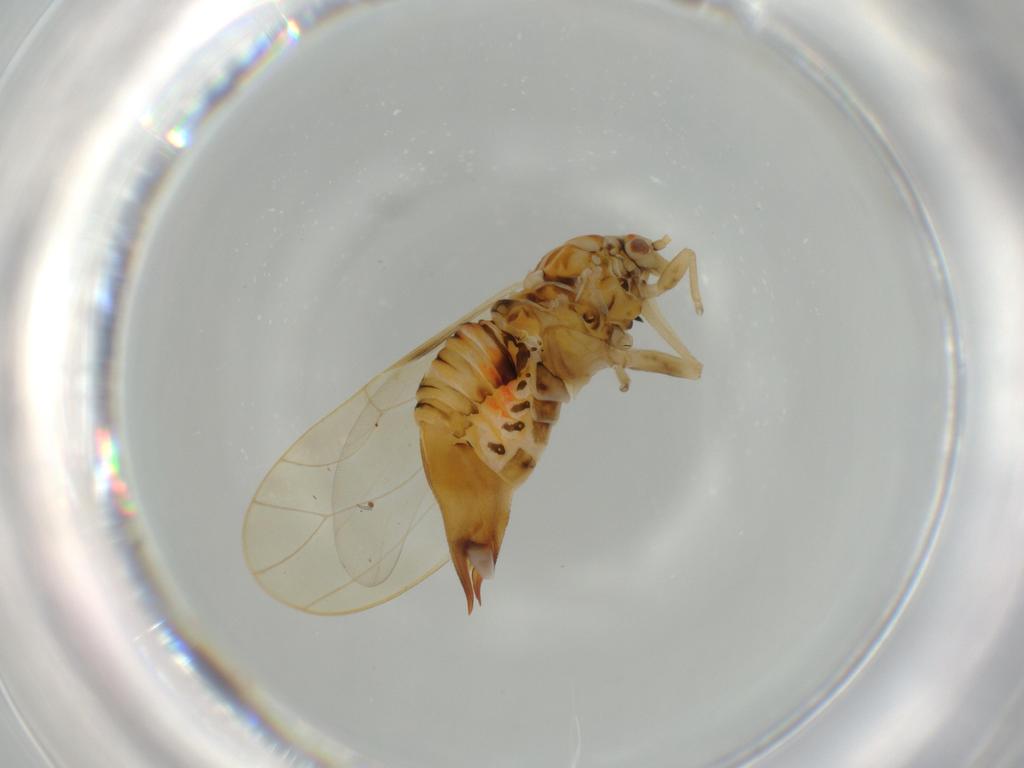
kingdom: Animalia
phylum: Arthropoda
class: Insecta
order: Hemiptera
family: Psyllidae
